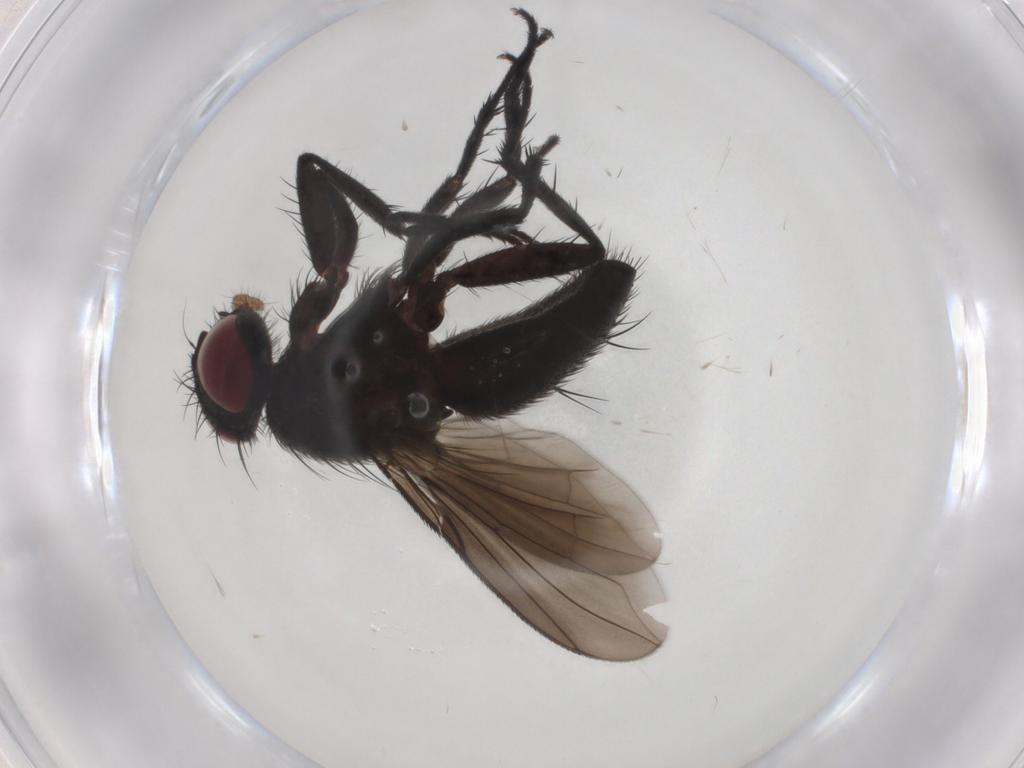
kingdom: Animalia
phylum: Arthropoda
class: Insecta
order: Diptera
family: Calliphoridae
